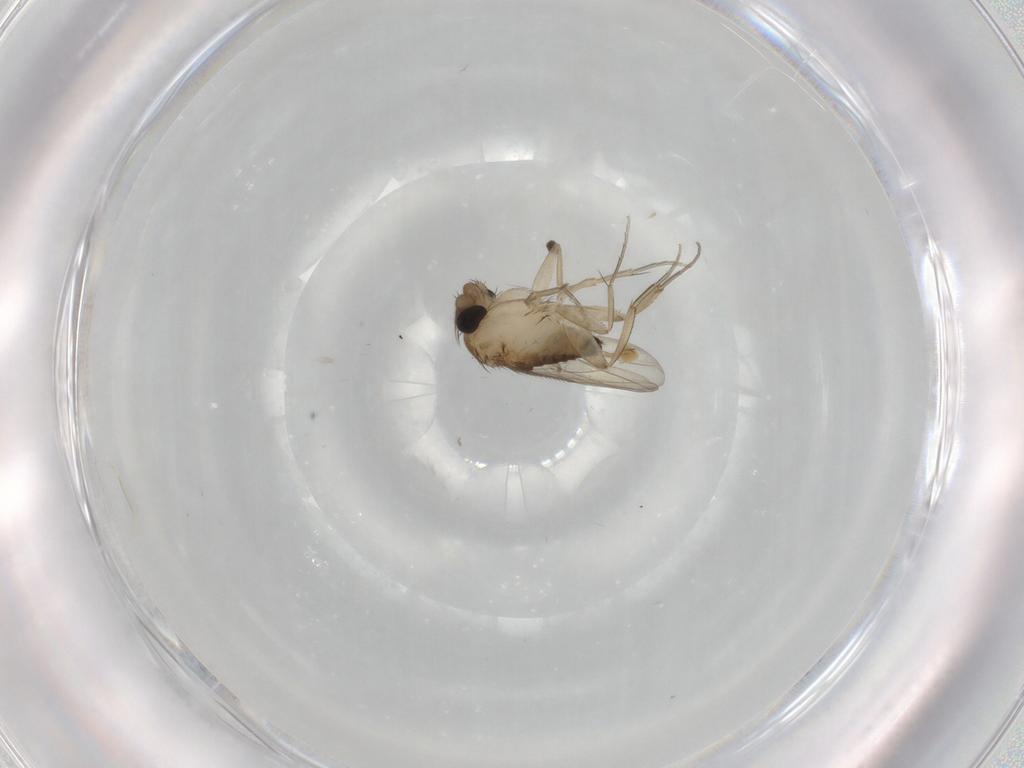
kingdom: Animalia
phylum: Arthropoda
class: Insecta
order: Diptera
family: Phoridae
